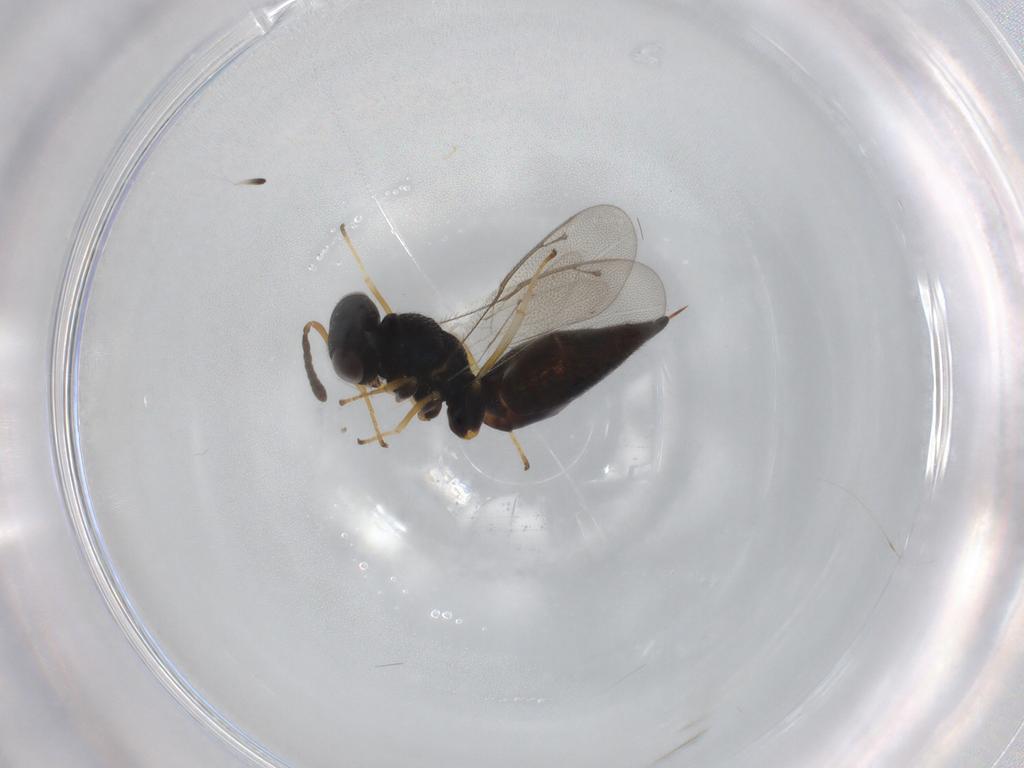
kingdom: Animalia
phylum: Arthropoda
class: Insecta
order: Hymenoptera
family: Pteromalidae
